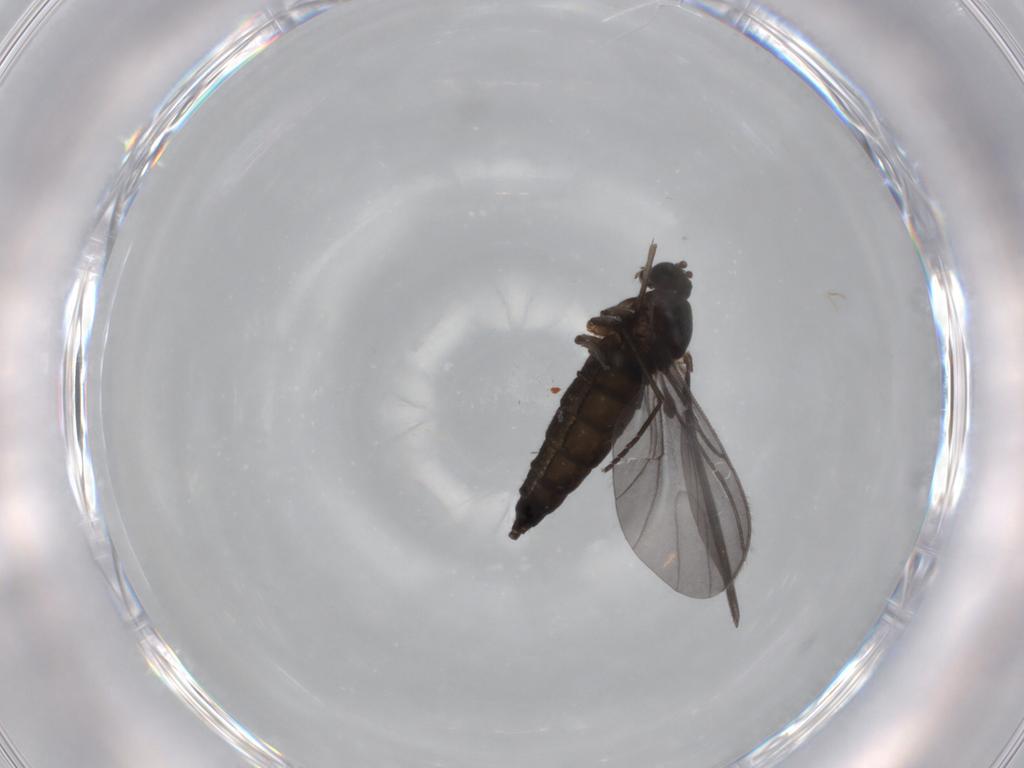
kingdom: Animalia
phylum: Arthropoda
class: Insecta
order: Diptera
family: Sciaridae
